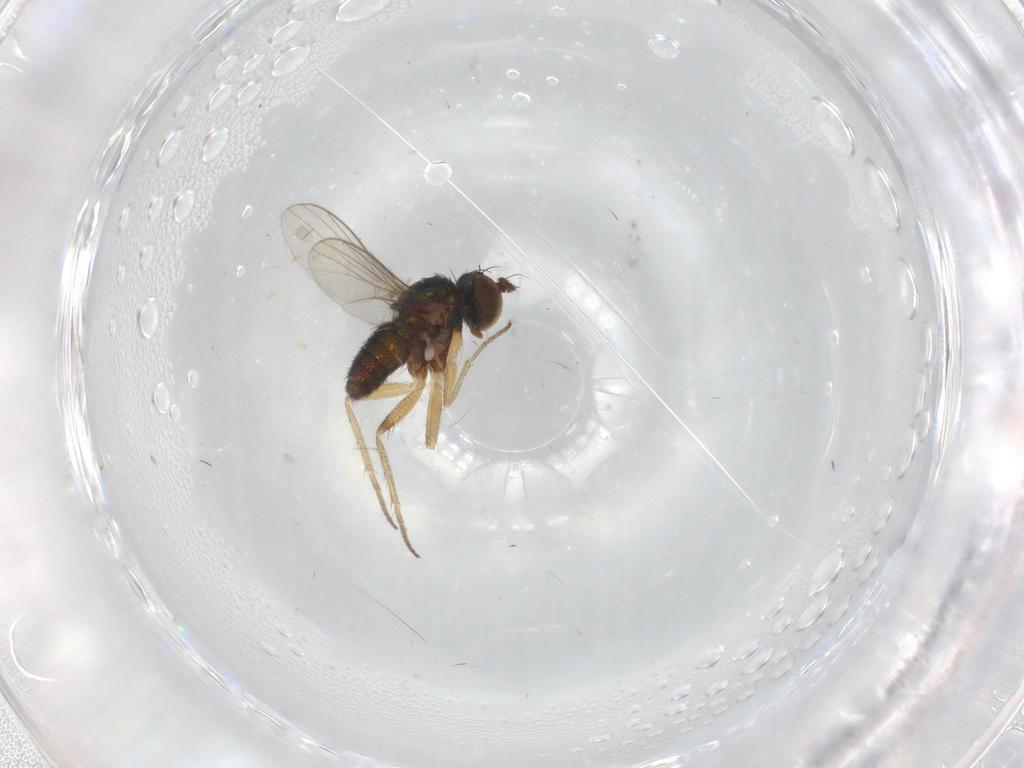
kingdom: Animalia
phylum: Arthropoda
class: Insecta
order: Diptera
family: Dolichopodidae
